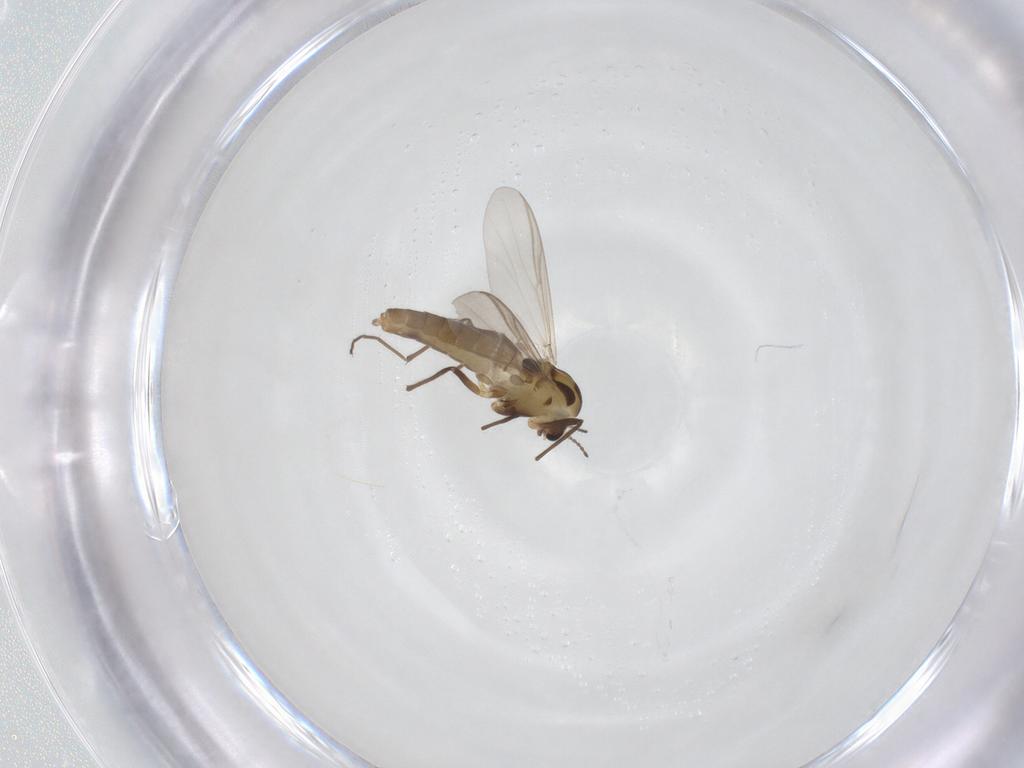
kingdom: Animalia
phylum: Arthropoda
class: Insecta
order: Diptera
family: Chironomidae
